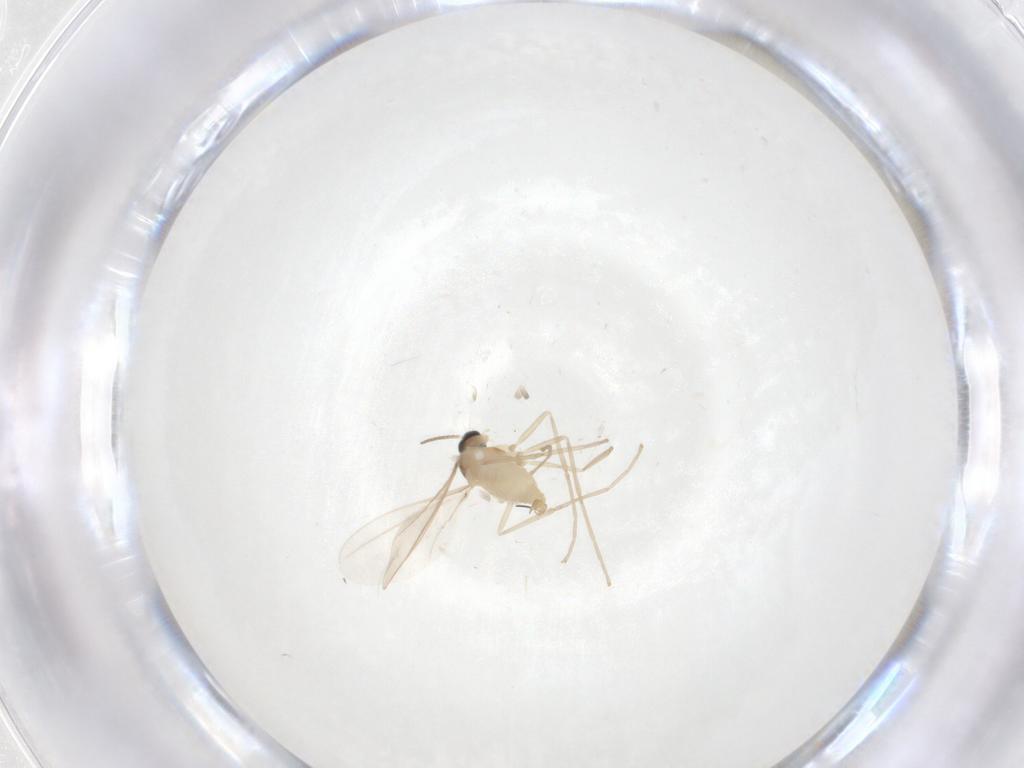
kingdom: Animalia
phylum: Arthropoda
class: Insecta
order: Diptera
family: Cecidomyiidae
